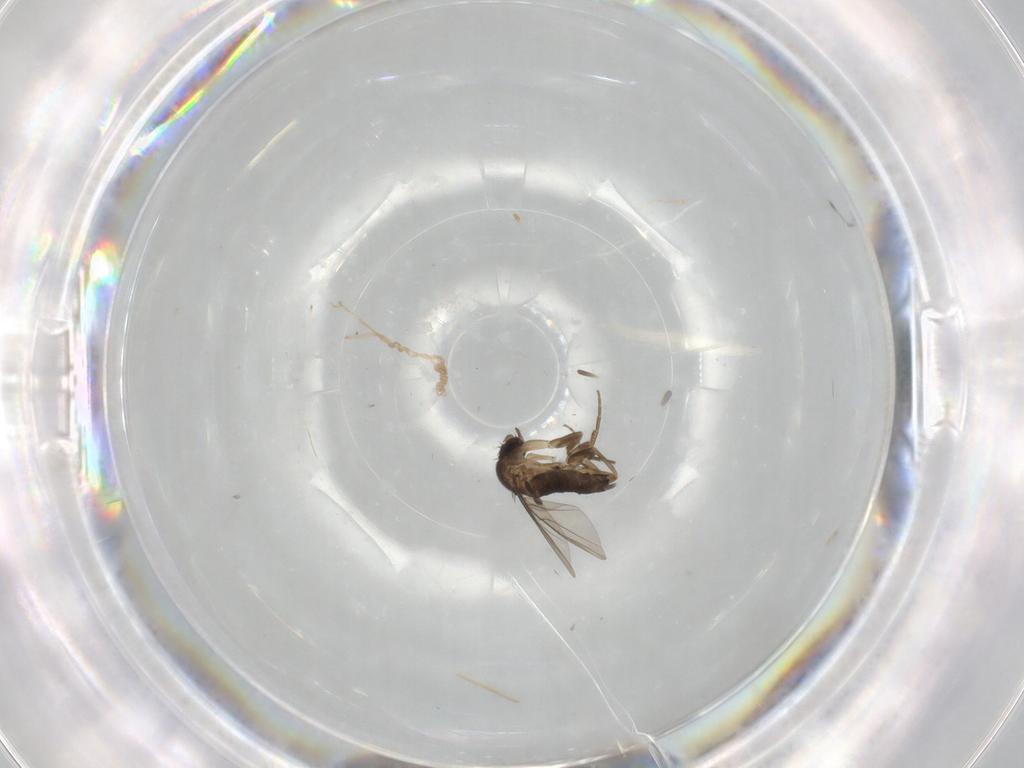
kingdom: Animalia
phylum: Arthropoda
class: Insecta
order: Diptera
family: Phoridae
